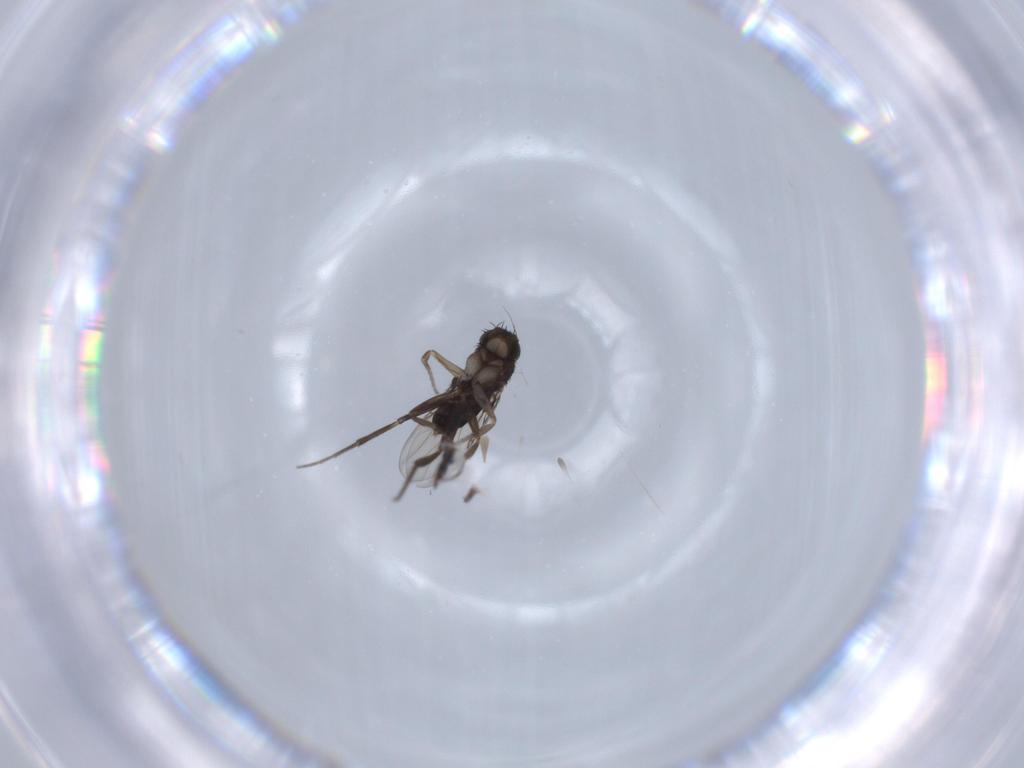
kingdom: Animalia
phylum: Arthropoda
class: Insecta
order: Diptera
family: Phoridae
